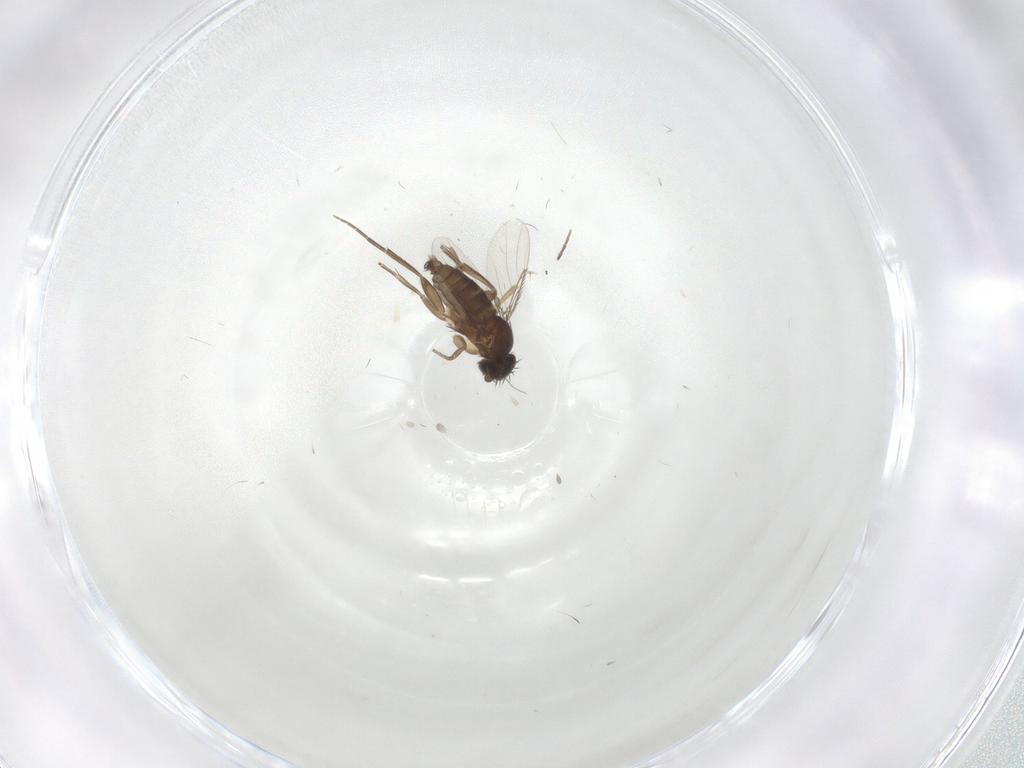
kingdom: Animalia
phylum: Arthropoda
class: Insecta
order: Diptera
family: Phoridae
